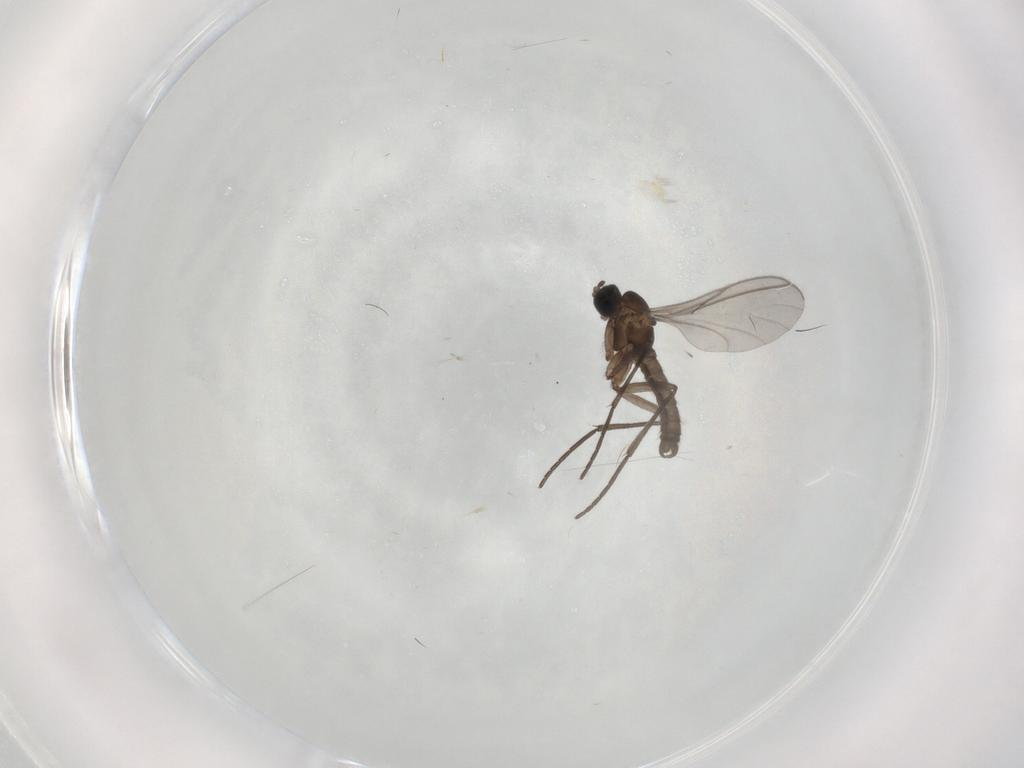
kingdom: Animalia
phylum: Arthropoda
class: Insecta
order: Diptera
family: Sciaridae
